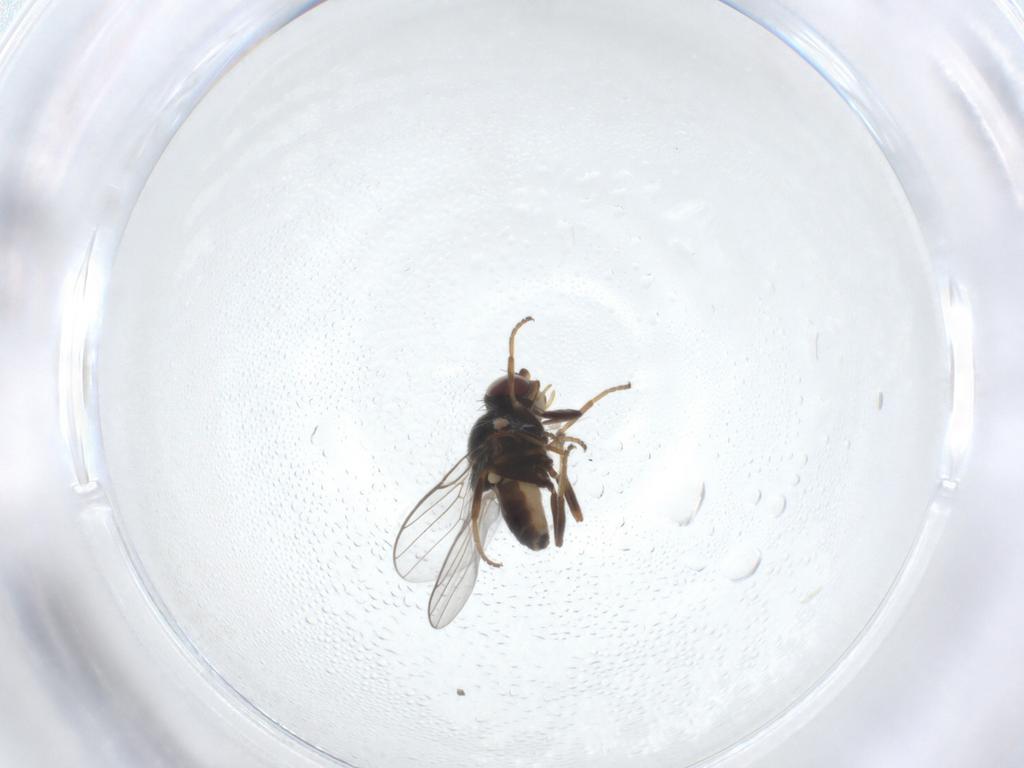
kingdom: Animalia
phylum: Arthropoda
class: Insecta
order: Diptera
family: Chloropidae
